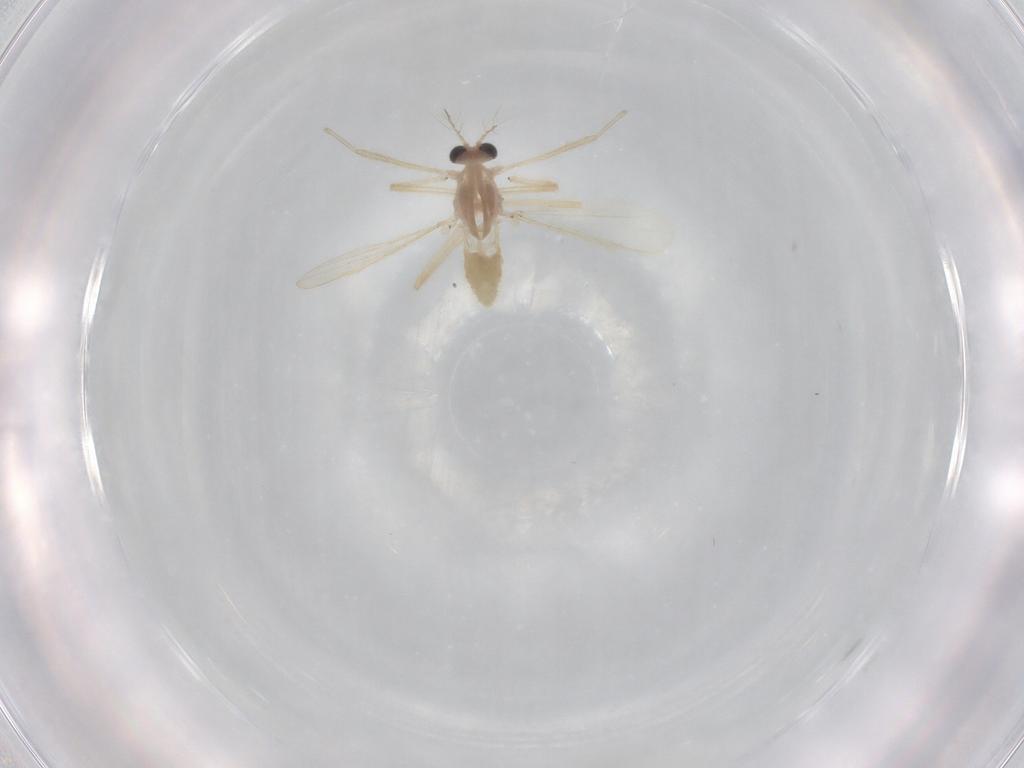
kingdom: Animalia
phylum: Arthropoda
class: Insecta
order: Diptera
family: Chironomidae
